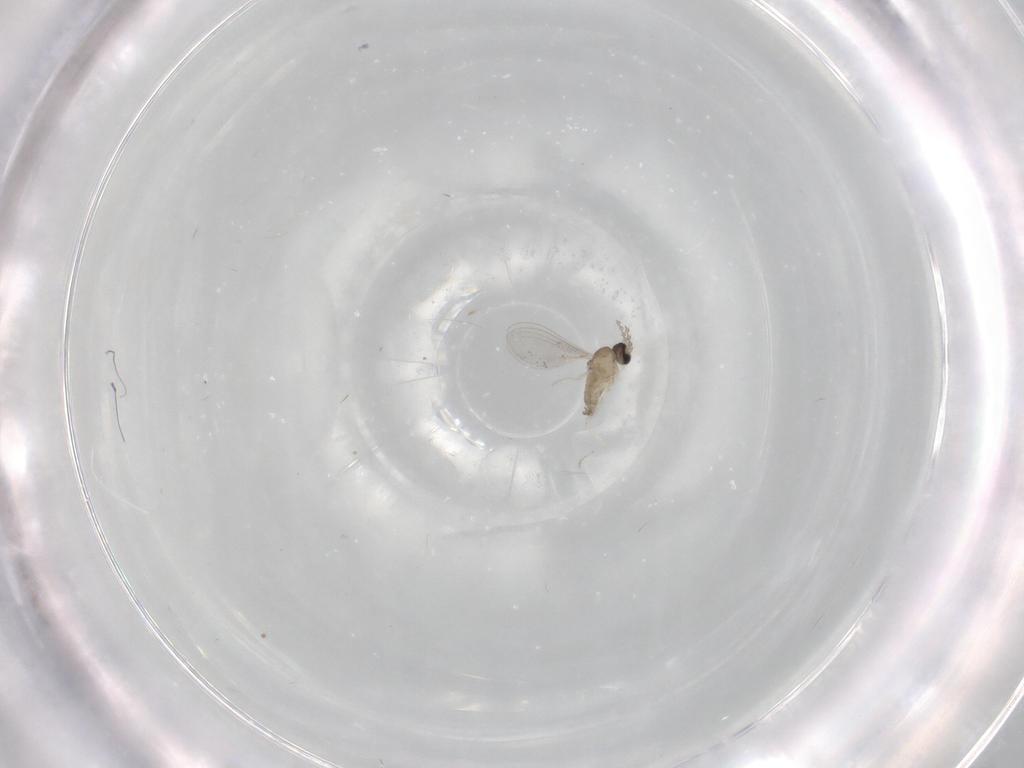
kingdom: Animalia
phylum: Arthropoda
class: Insecta
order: Diptera
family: Cecidomyiidae
